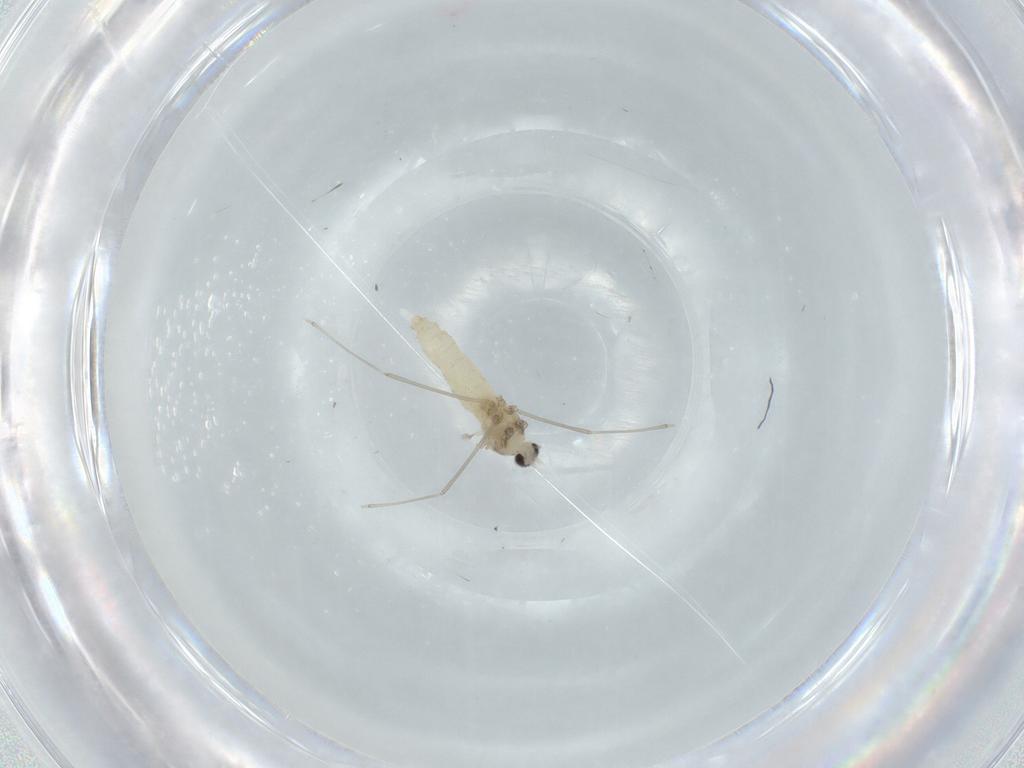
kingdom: Animalia
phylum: Arthropoda
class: Insecta
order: Diptera
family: Cecidomyiidae
